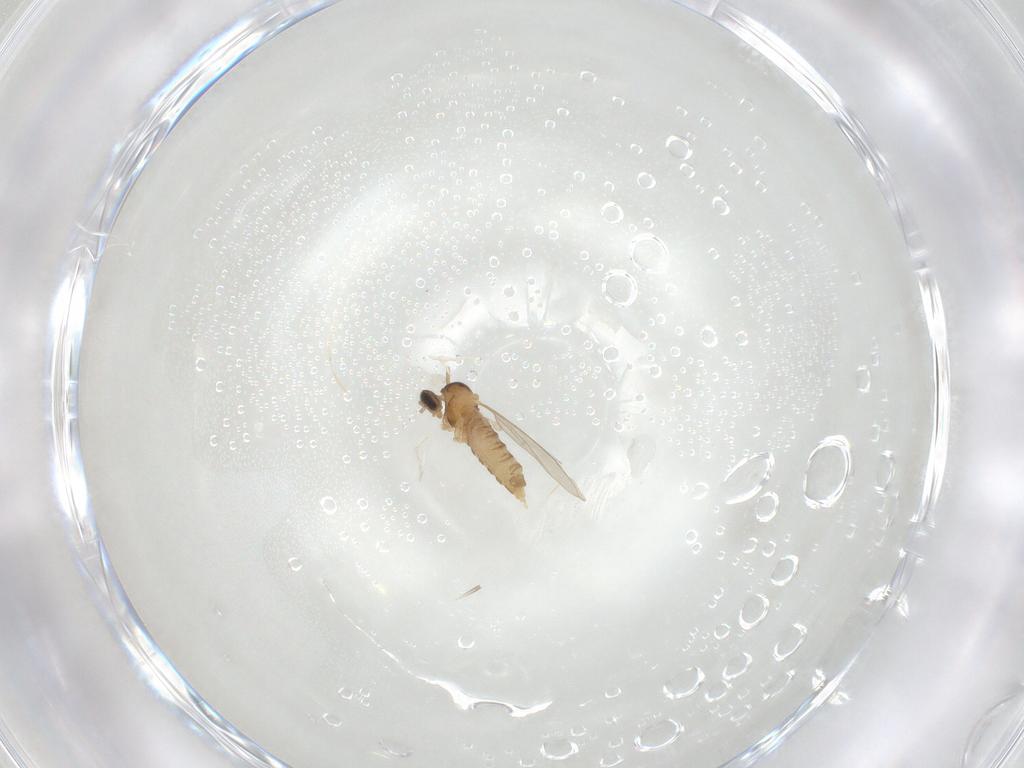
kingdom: Animalia
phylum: Arthropoda
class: Insecta
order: Diptera
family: Cecidomyiidae
